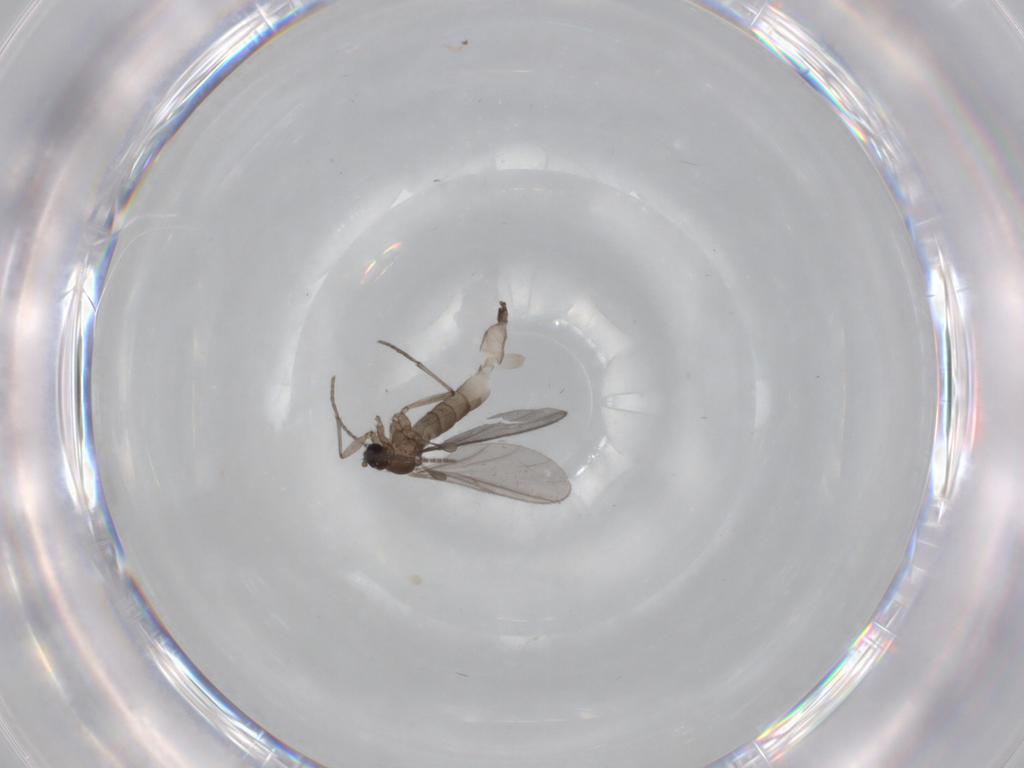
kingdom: Animalia
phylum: Arthropoda
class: Insecta
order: Diptera
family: Sciaridae
